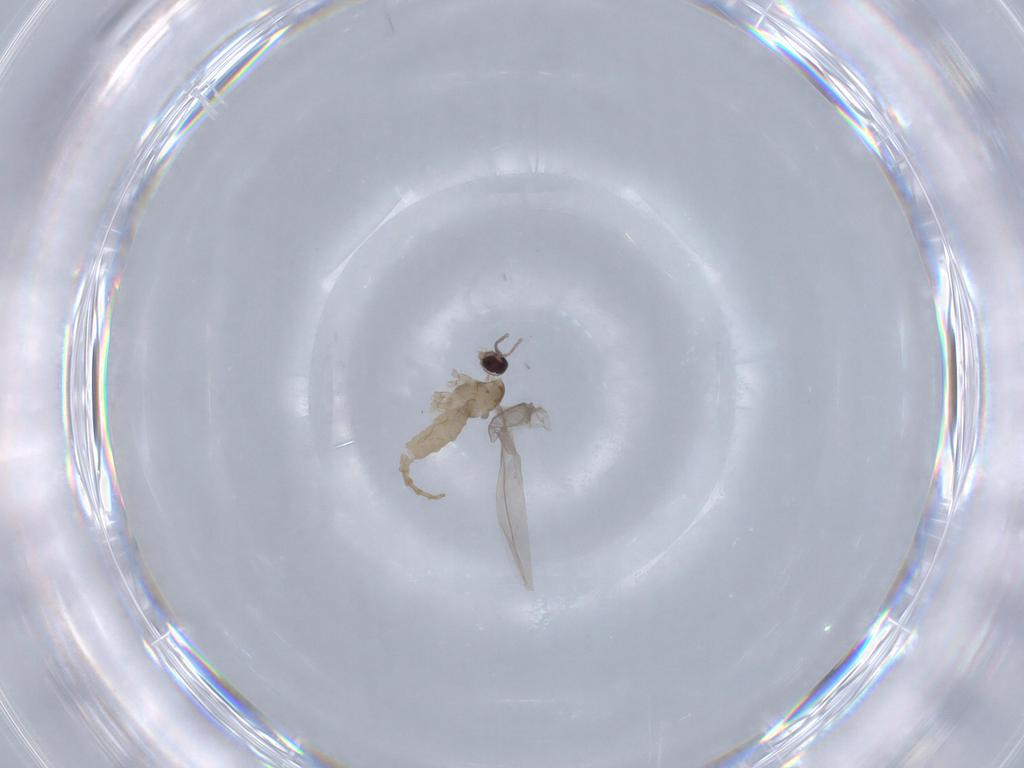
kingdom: Animalia
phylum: Arthropoda
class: Insecta
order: Diptera
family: Cecidomyiidae
